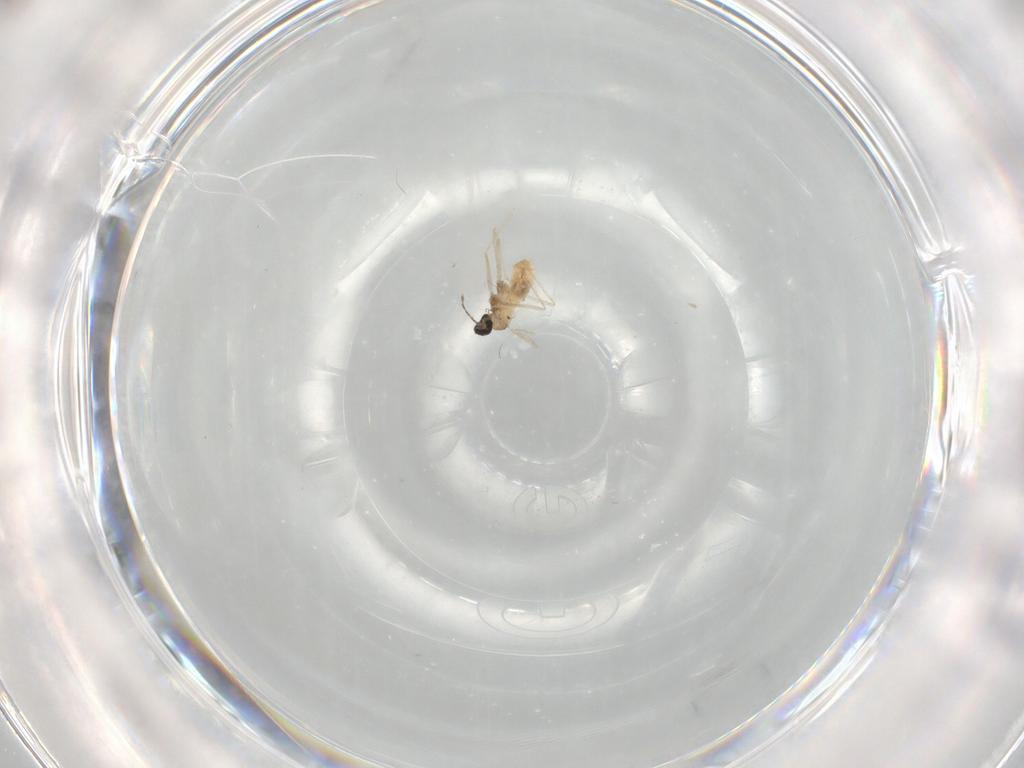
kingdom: Animalia
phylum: Arthropoda
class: Insecta
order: Diptera
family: Cecidomyiidae
